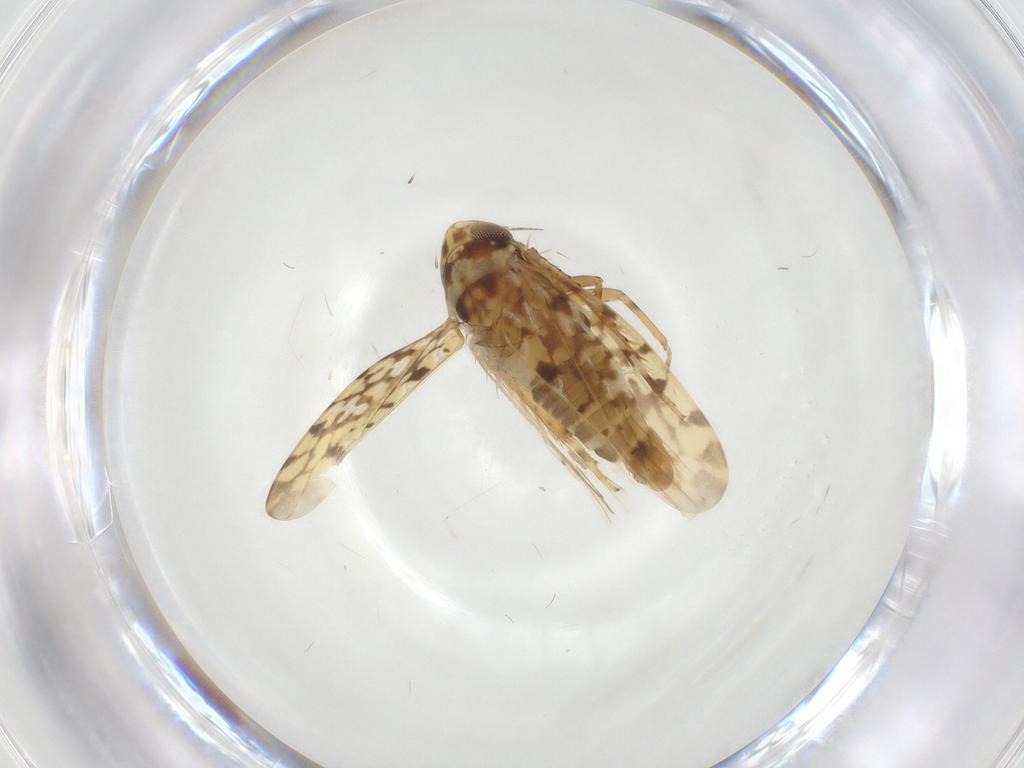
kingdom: Animalia
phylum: Arthropoda
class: Insecta
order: Hemiptera
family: Cicadellidae
